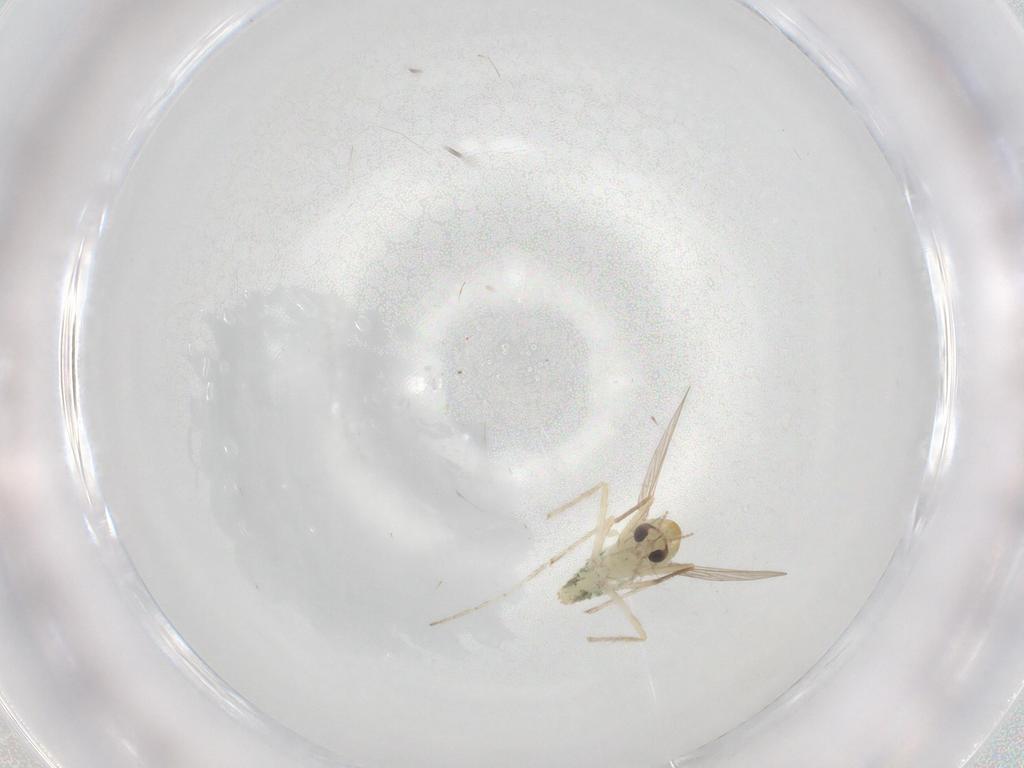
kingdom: Animalia
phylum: Arthropoda
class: Insecta
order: Diptera
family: Chironomidae
